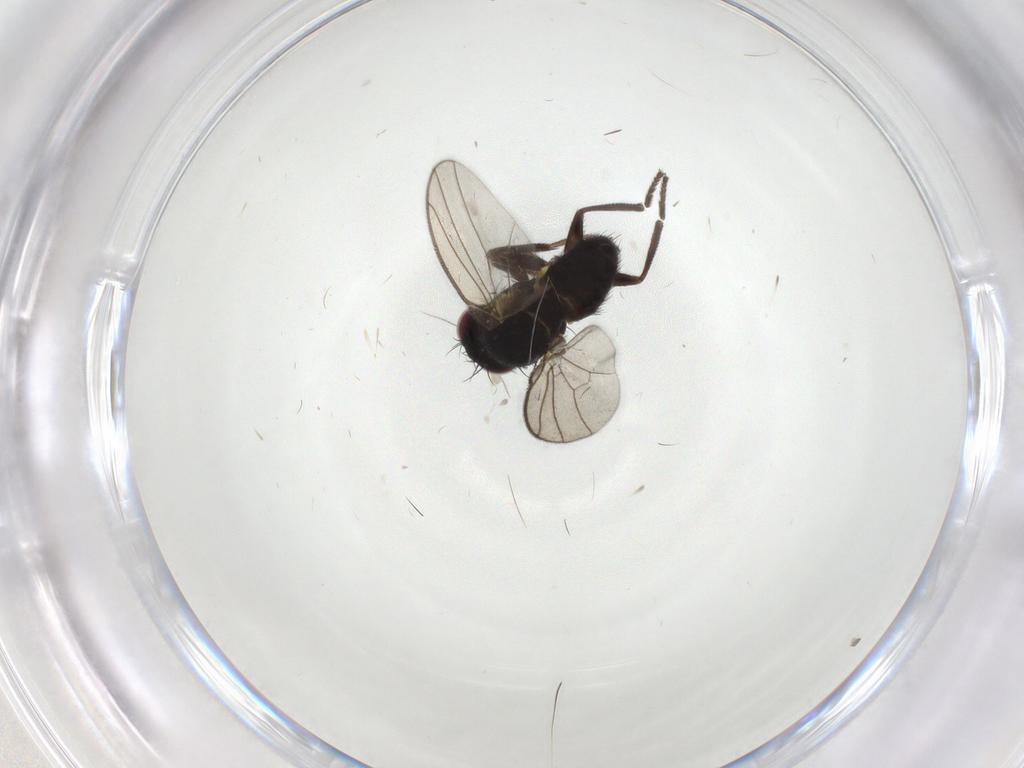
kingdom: Animalia
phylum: Arthropoda
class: Insecta
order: Diptera
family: Agromyzidae
